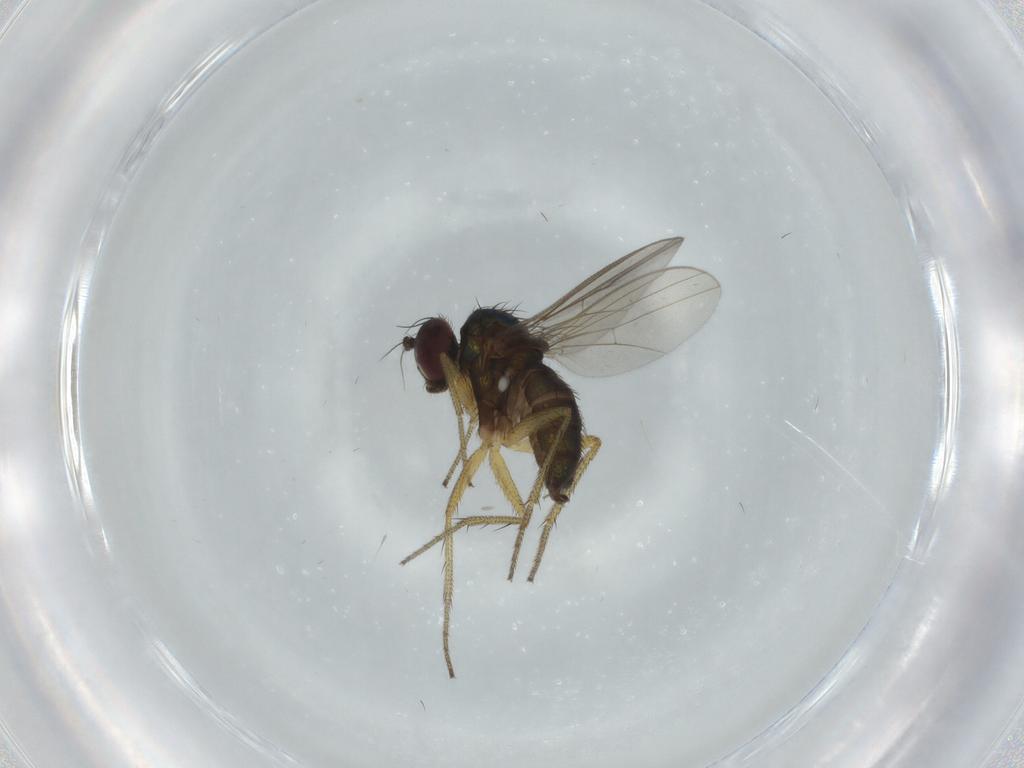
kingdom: Animalia
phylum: Arthropoda
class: Insecta
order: Diptera
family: Dolichopodidae
